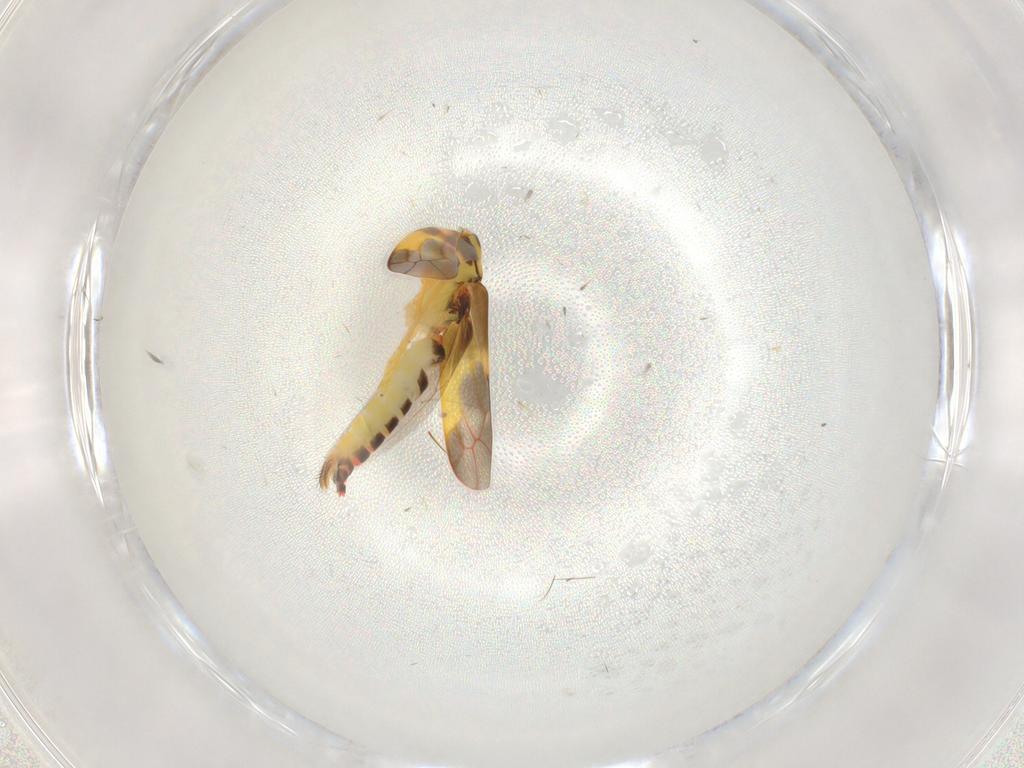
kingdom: Animalia
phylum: Arthropoda
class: Insecta
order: Hemiptera
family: Cicadellidae
